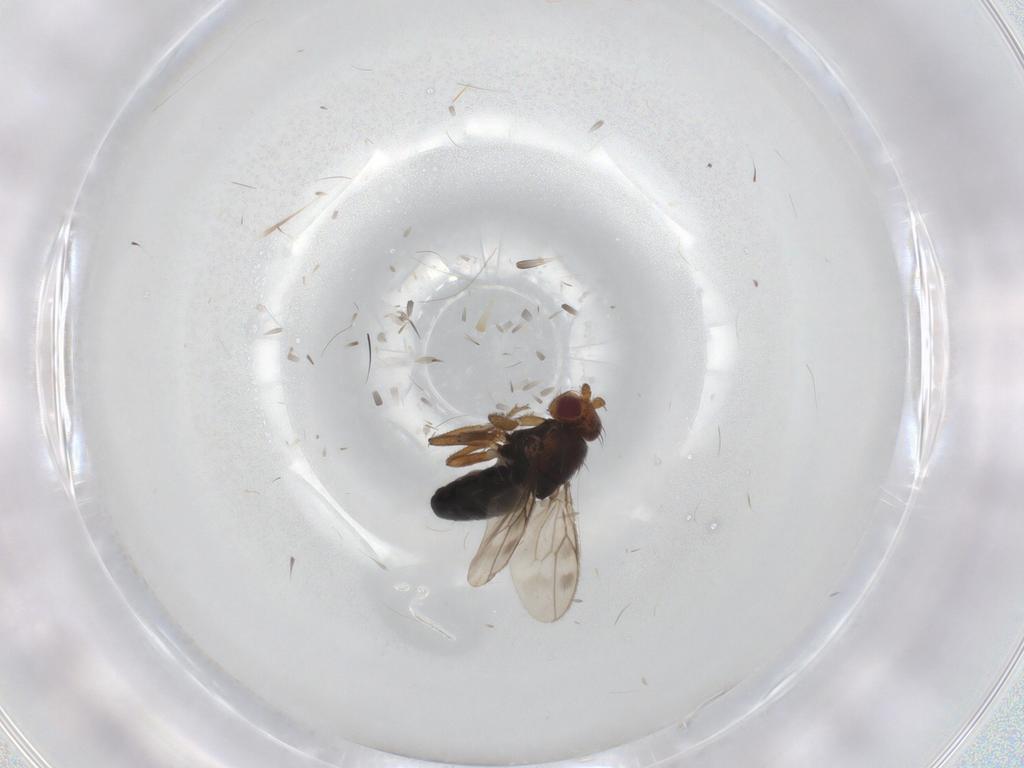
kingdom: Animalia
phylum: Arthropoda
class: Insecta
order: Diptera
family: Sphaeroceridae
